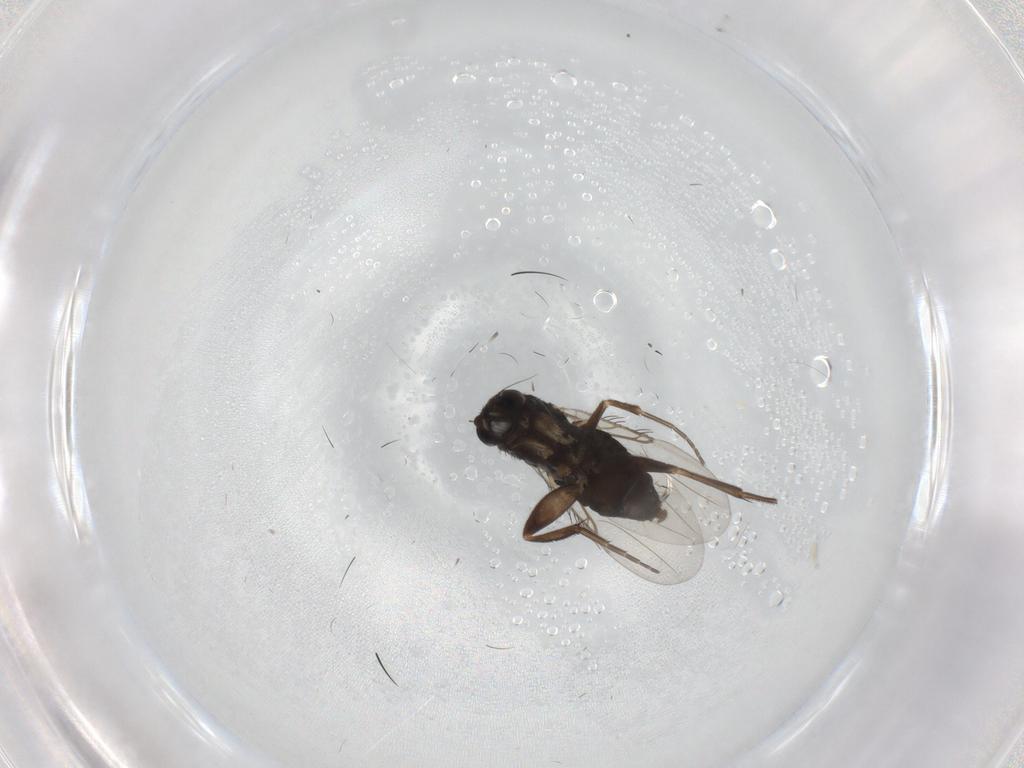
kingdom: Animalia
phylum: Arthropoda
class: Insecta
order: Diptera
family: Phoridae
